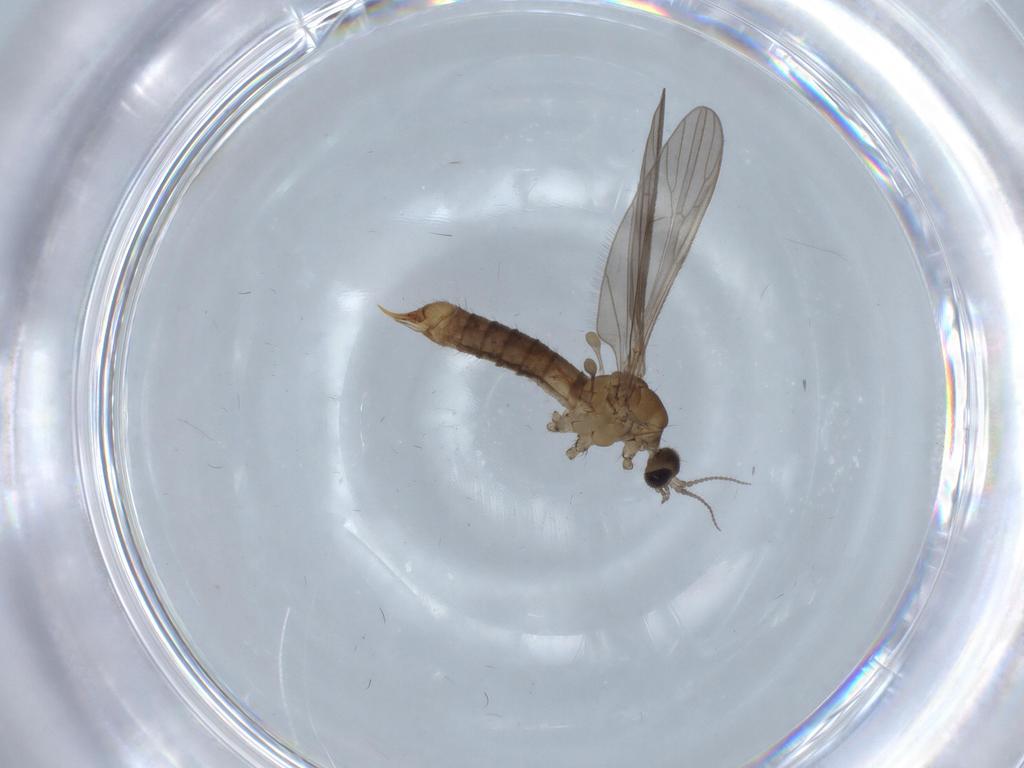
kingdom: Animalia
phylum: Arthropoda
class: Insecta
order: Diptera
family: Limoniidae
